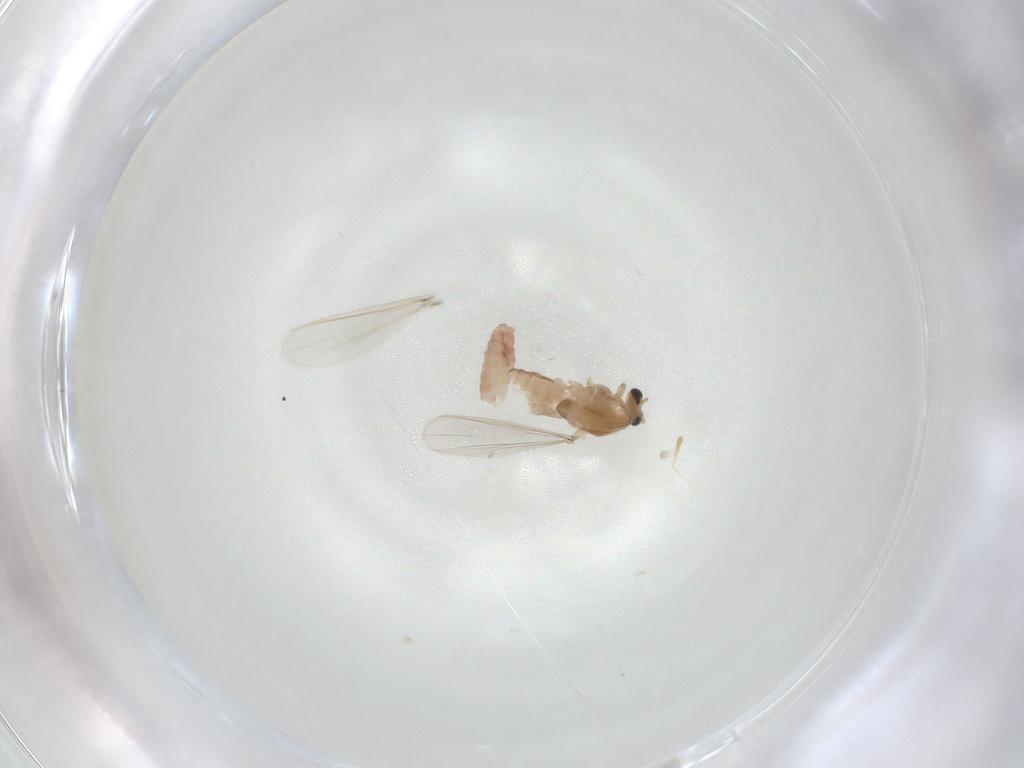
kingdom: Animalia
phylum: Arthropoda
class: Insecta
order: Diptera
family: Chironomidae
